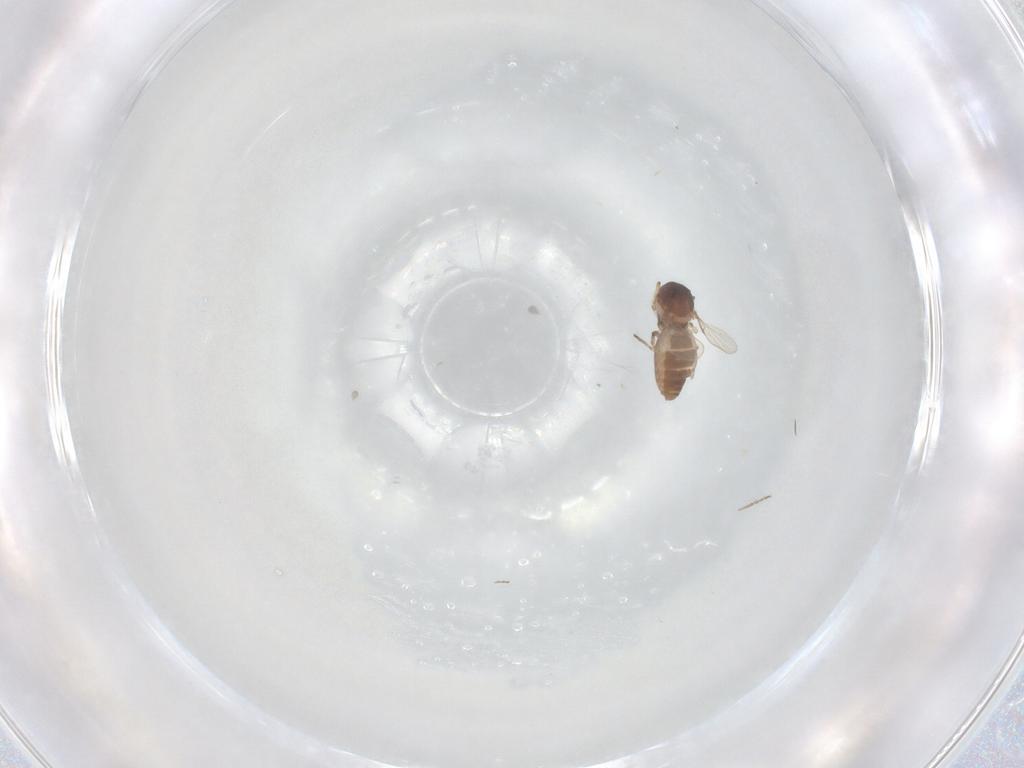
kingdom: Animalia
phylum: Arthropoda
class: Insecta
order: Diptera
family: Ceratopogonidae
